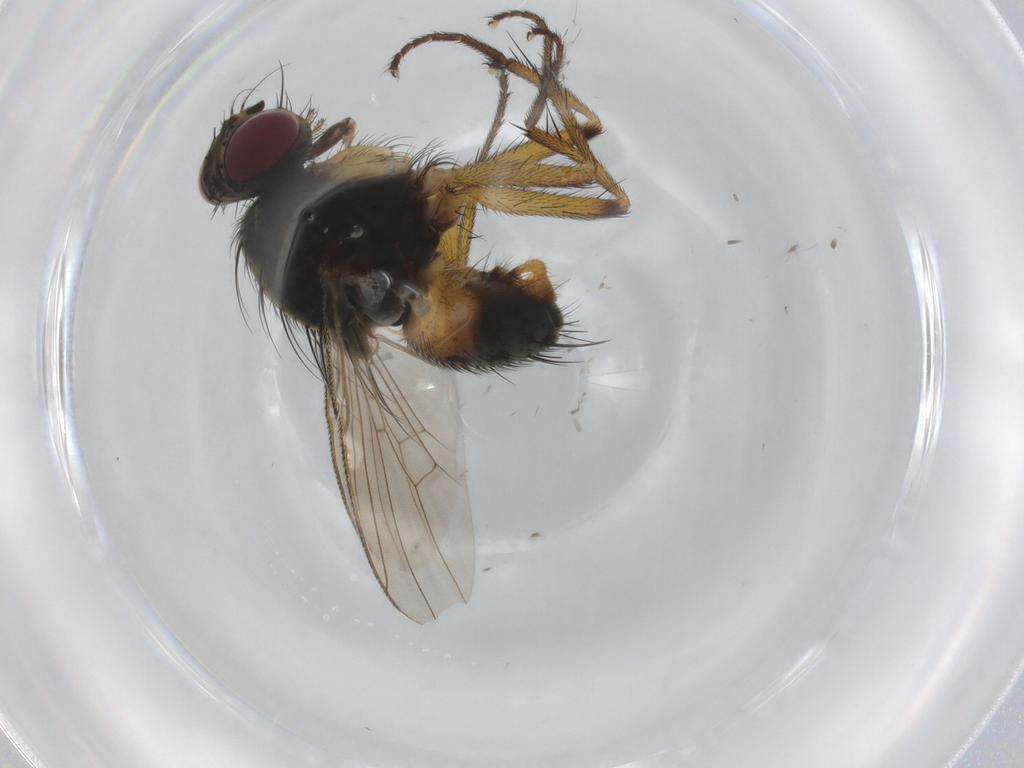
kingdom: Animalia
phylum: Arthropoda
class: Insecta
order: Diptera
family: Muscidae
